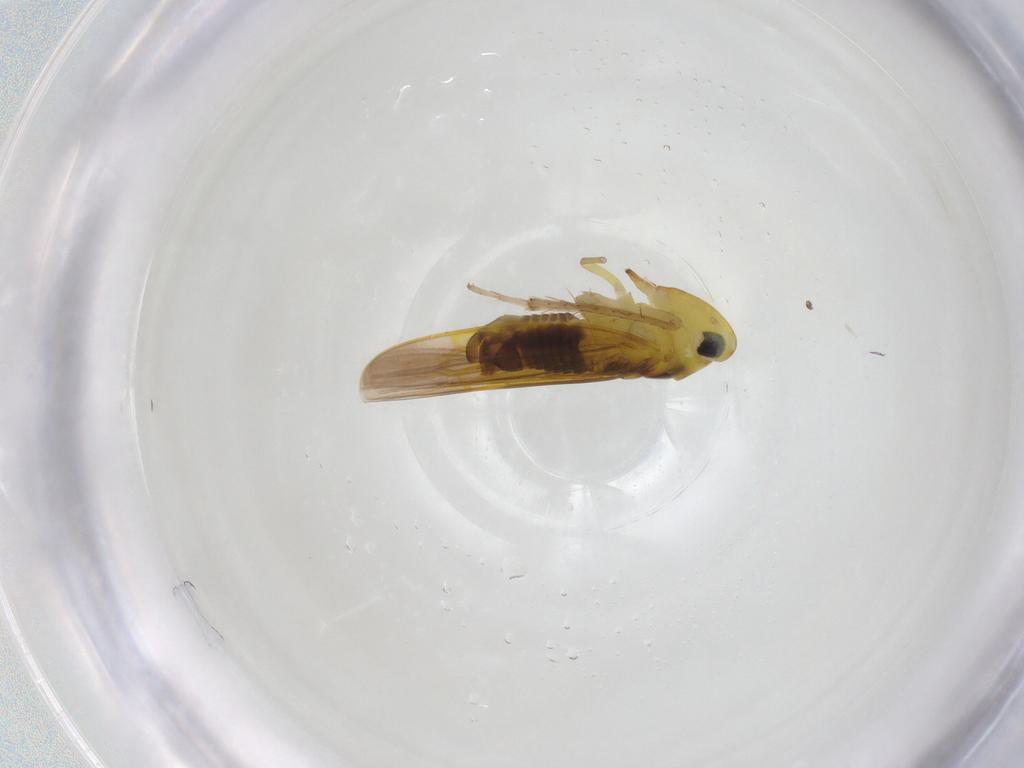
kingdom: Animalia
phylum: Arthropoda
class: Insecta
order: Hemiptera
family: Cicadellidae
